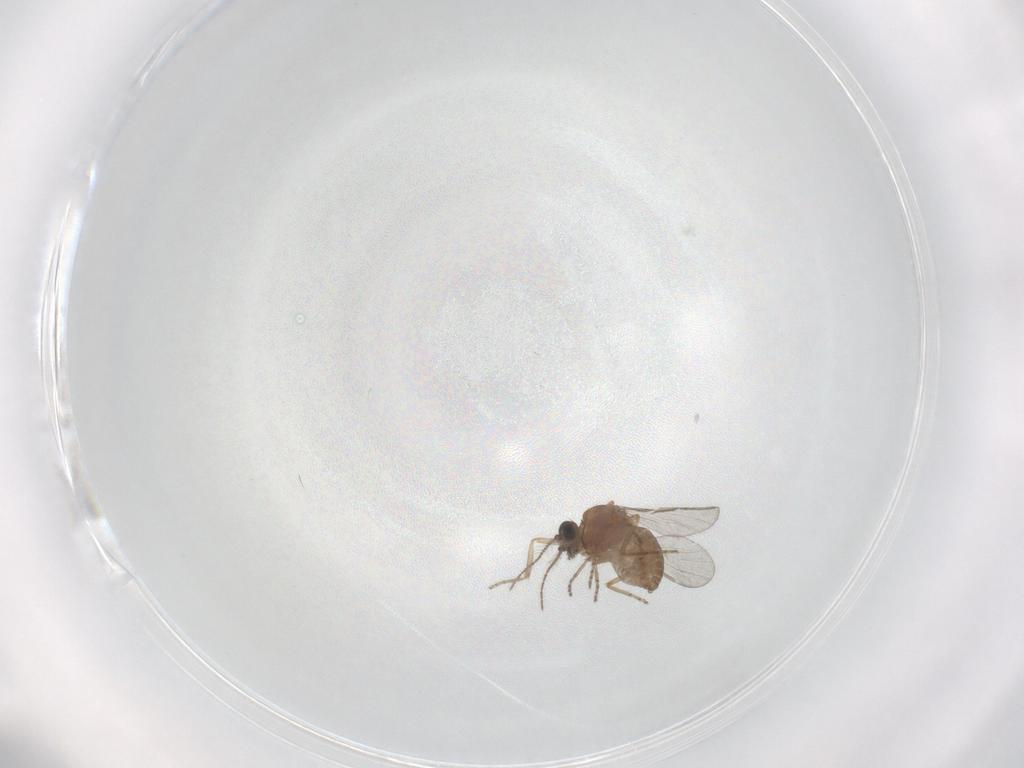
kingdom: Animalia
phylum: Arthropoda
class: Insecta
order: Diptera
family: Ceratopogonidae
